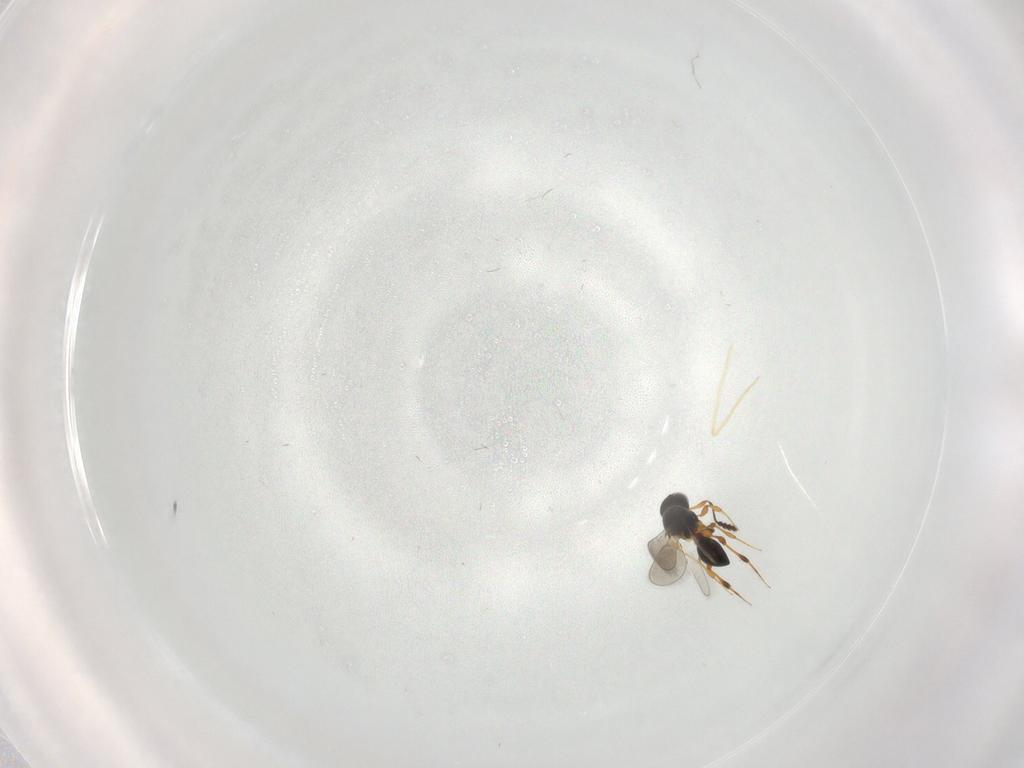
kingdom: Animalia
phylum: Arthropoda
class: Insecta
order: Hymenoptera
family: Platygastridae
